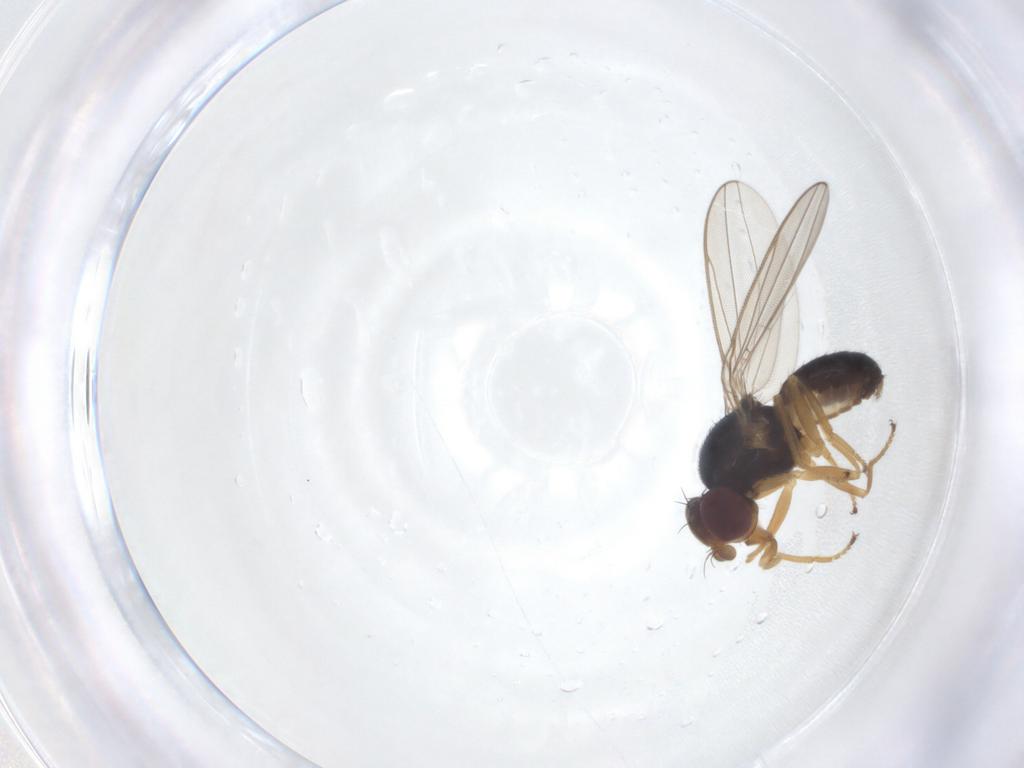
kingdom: Animalia
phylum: Arthropoda
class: Insecta
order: Diptera
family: Asteiidae
